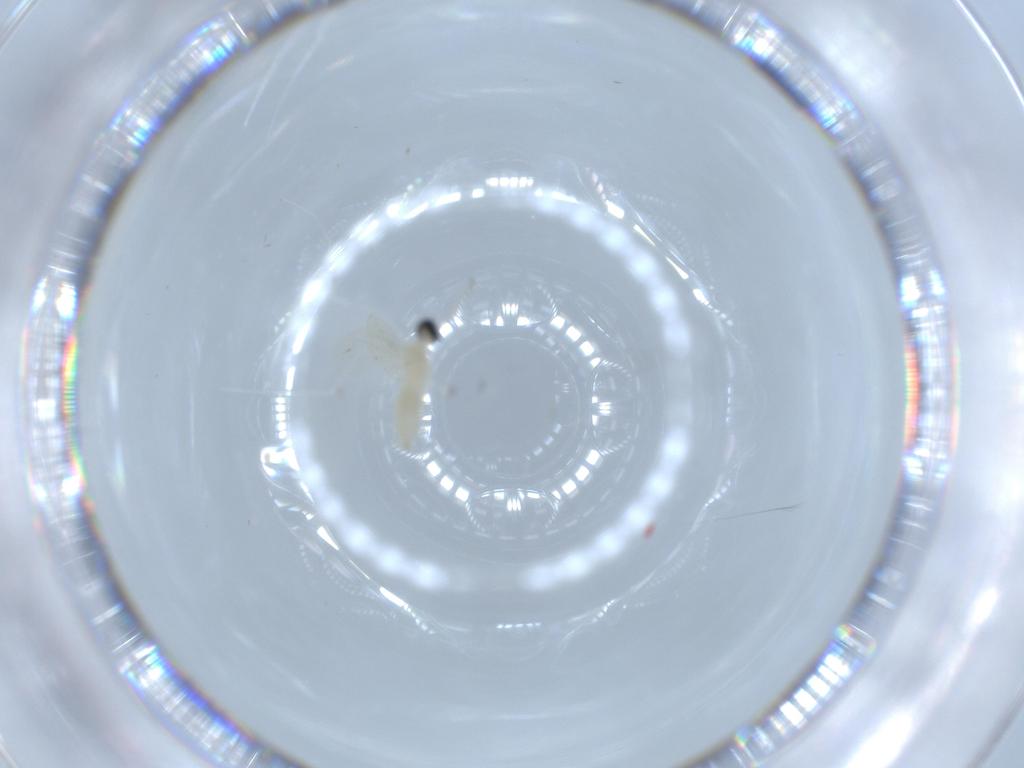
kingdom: Animalia
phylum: Arthropoda
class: Insecta
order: Diptera
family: Cecidomyiidae
